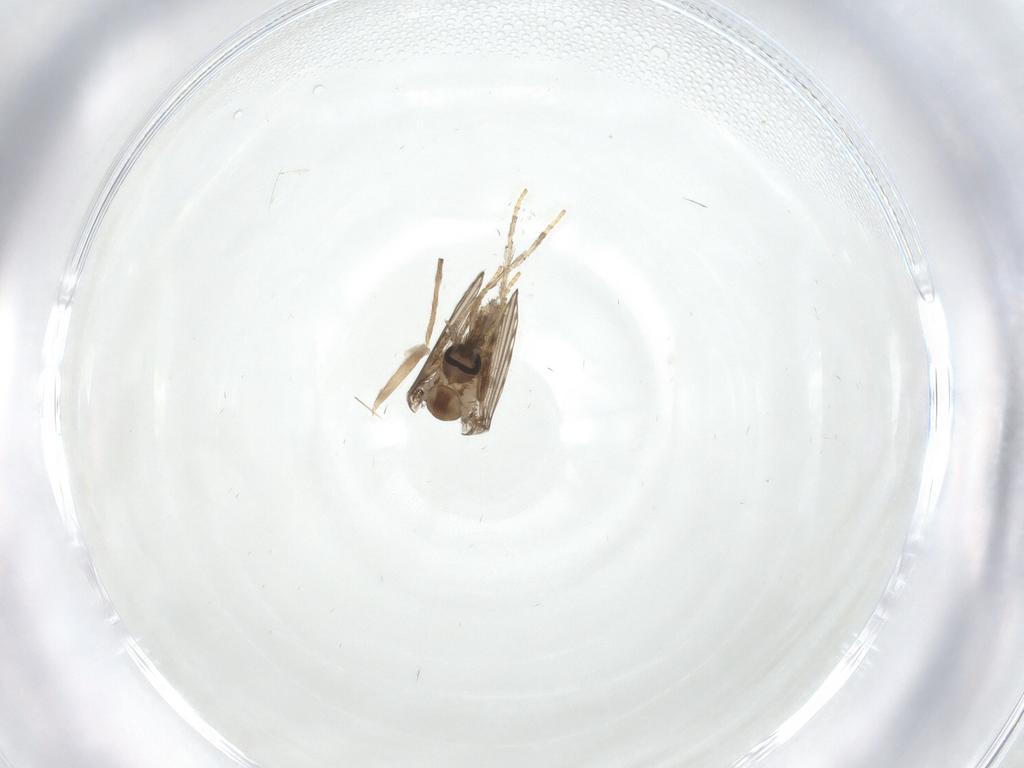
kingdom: Animalia
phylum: Arthropoda
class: Insecta
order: Diptera
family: Psychodidae
